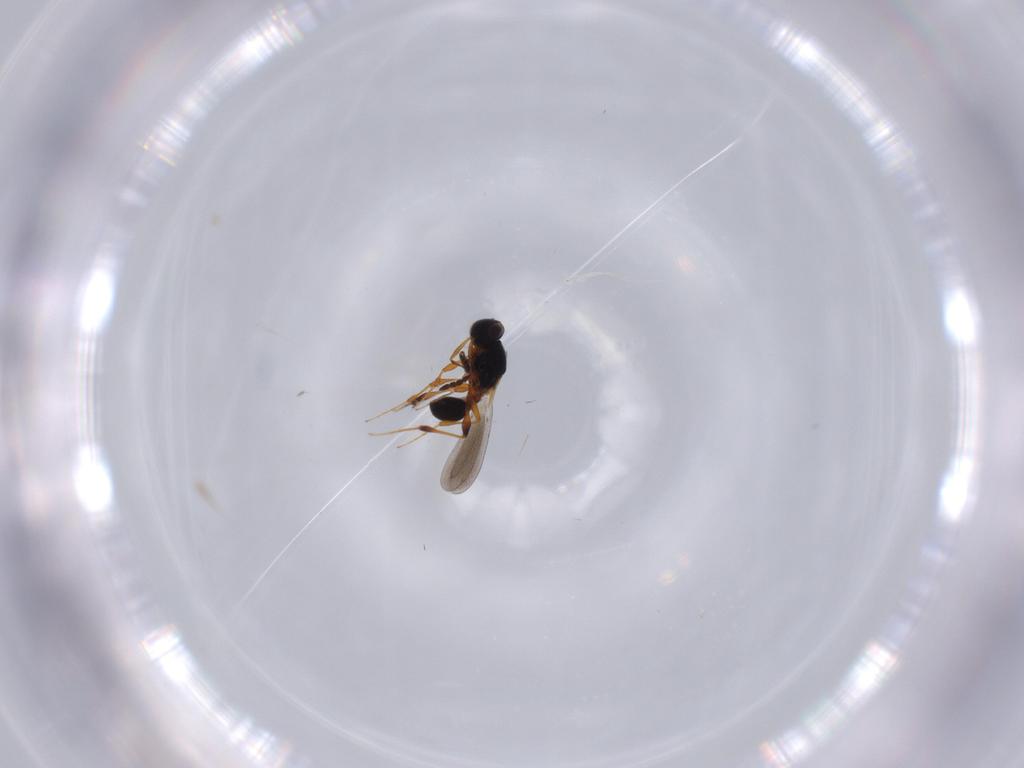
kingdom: Animalia
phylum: Arthropoda
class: Insecta
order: Hymenoptera
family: Platygastridae
